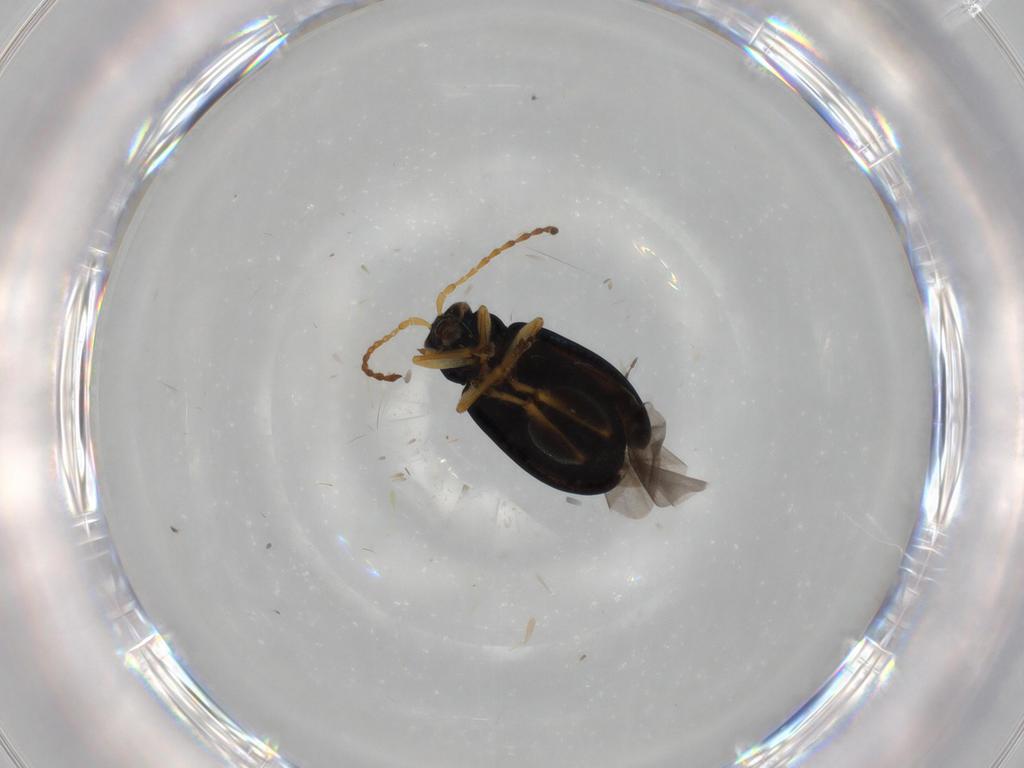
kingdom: Animalia
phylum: Arthropoda
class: Insecta
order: Coleoptera
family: Chrysomelidae
